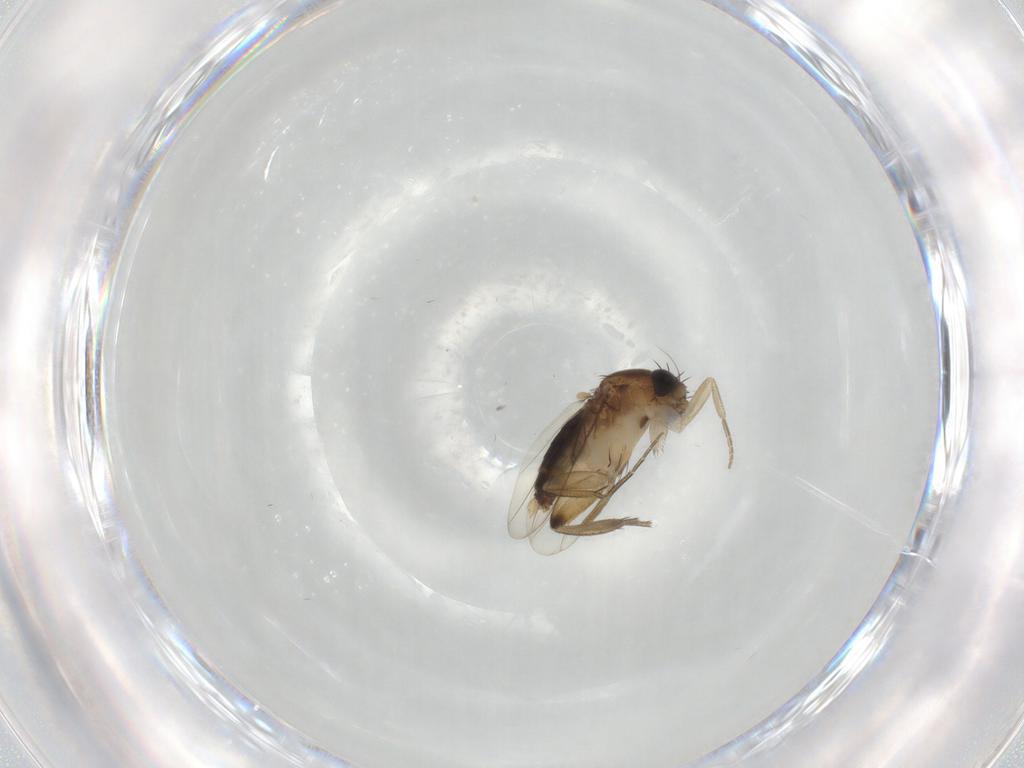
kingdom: Animalia
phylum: Arthropoda
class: Insecta
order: Diptera
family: Phoridae
